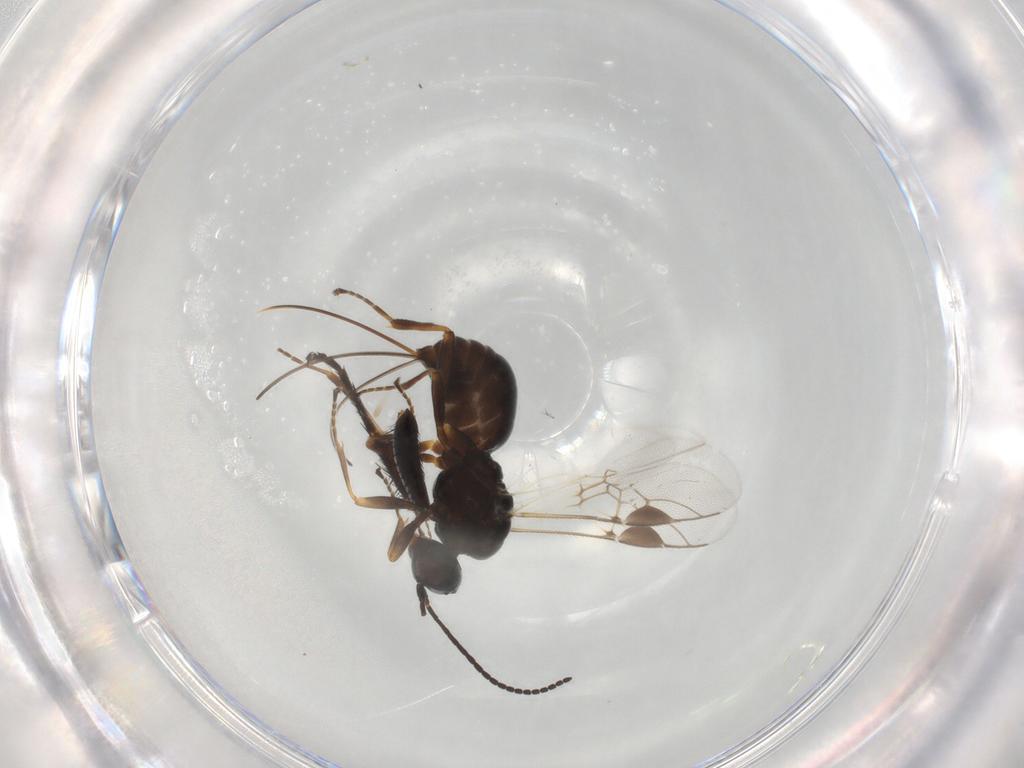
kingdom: Animalia
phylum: Arthropoda
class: Insecta
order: Hymenoptera
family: Braconidae
